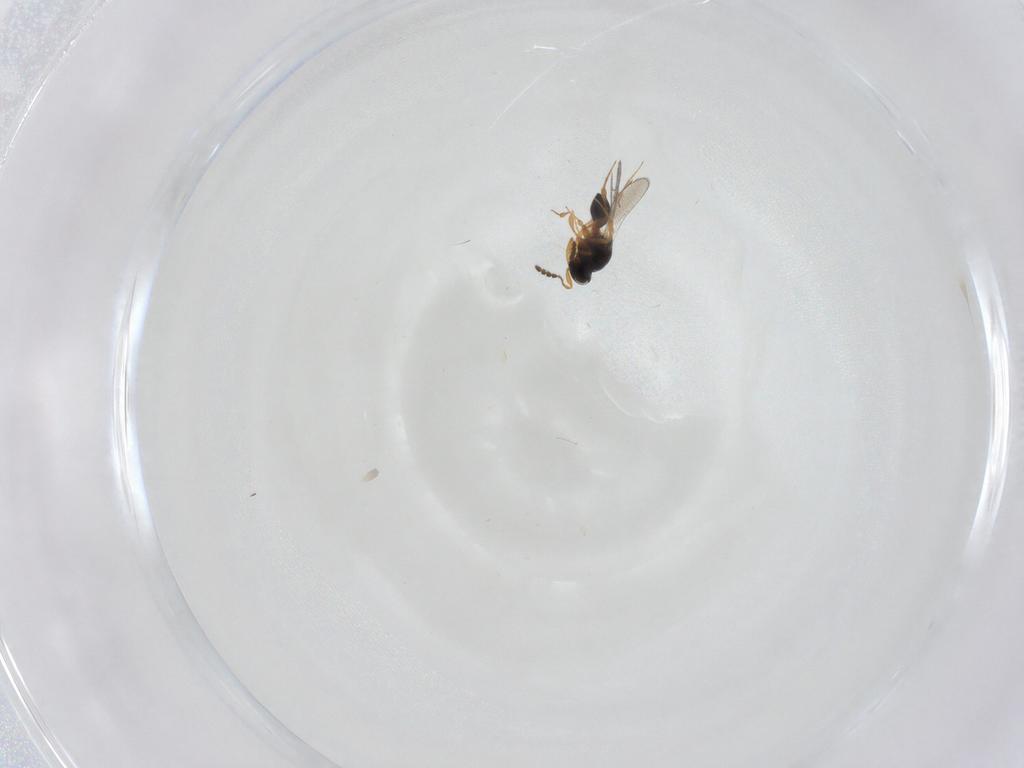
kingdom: Animalia
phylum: Arthropoda
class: Insecta
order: Hymenoptera
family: Platygastridae
